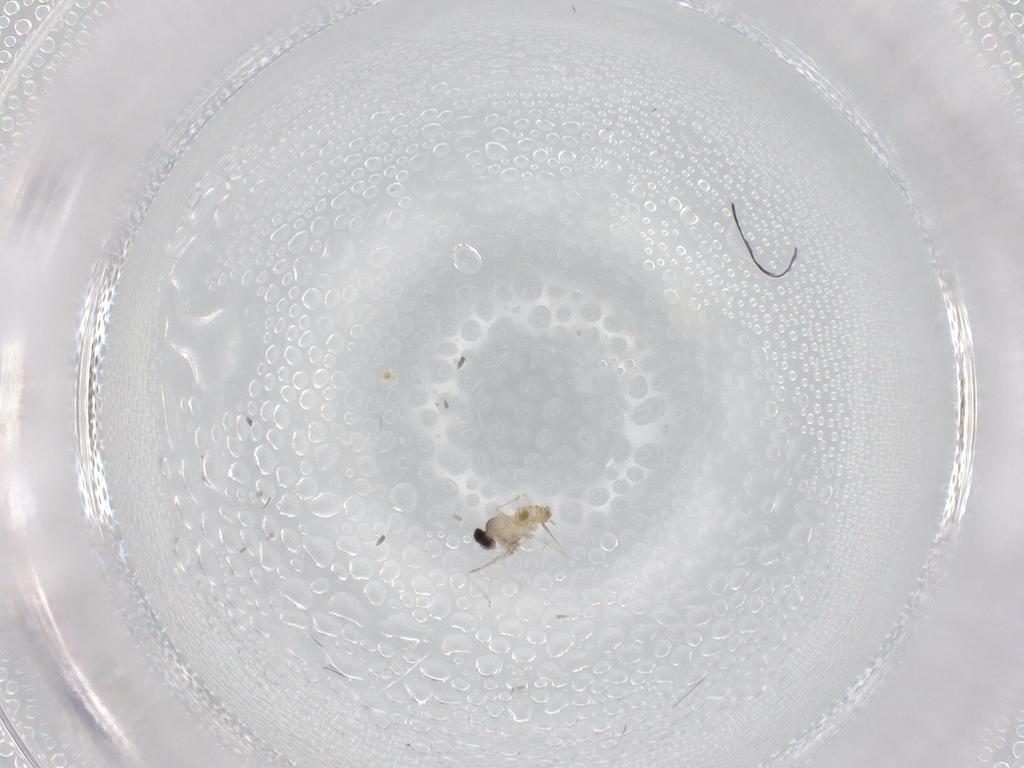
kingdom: Animalia
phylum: Arthropoda
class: Insecta
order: Diptera
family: Cecidomyiidae
